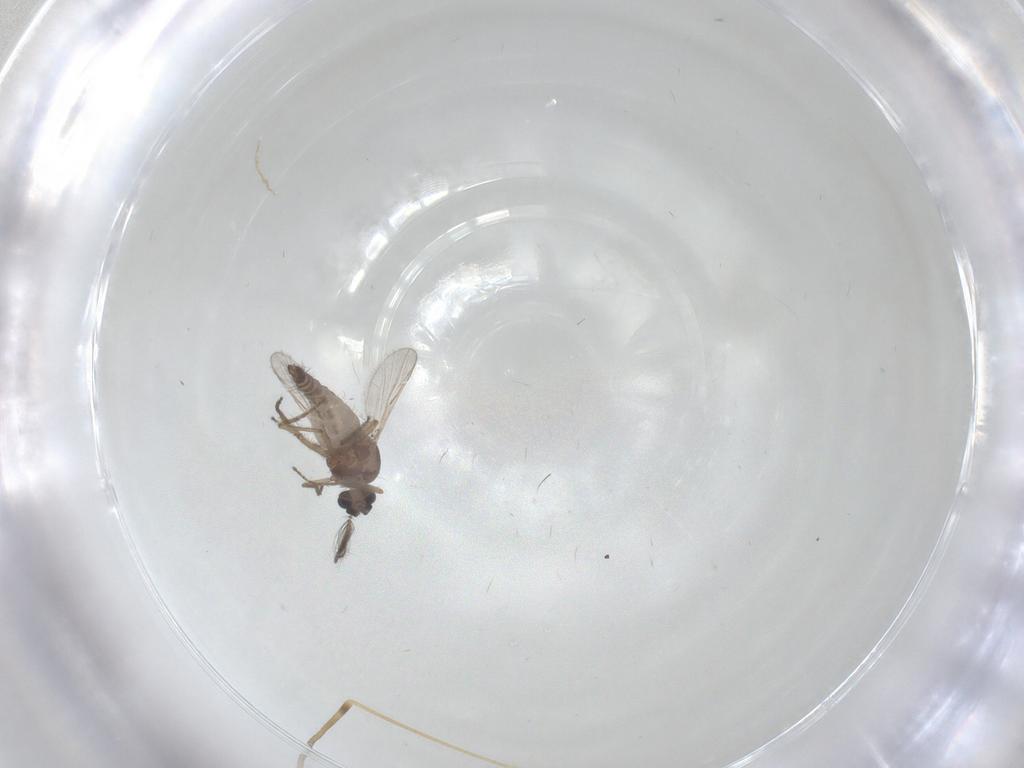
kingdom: Animalia
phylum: Arthropoda
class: Insecta
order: Diptera
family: Limoniidae
